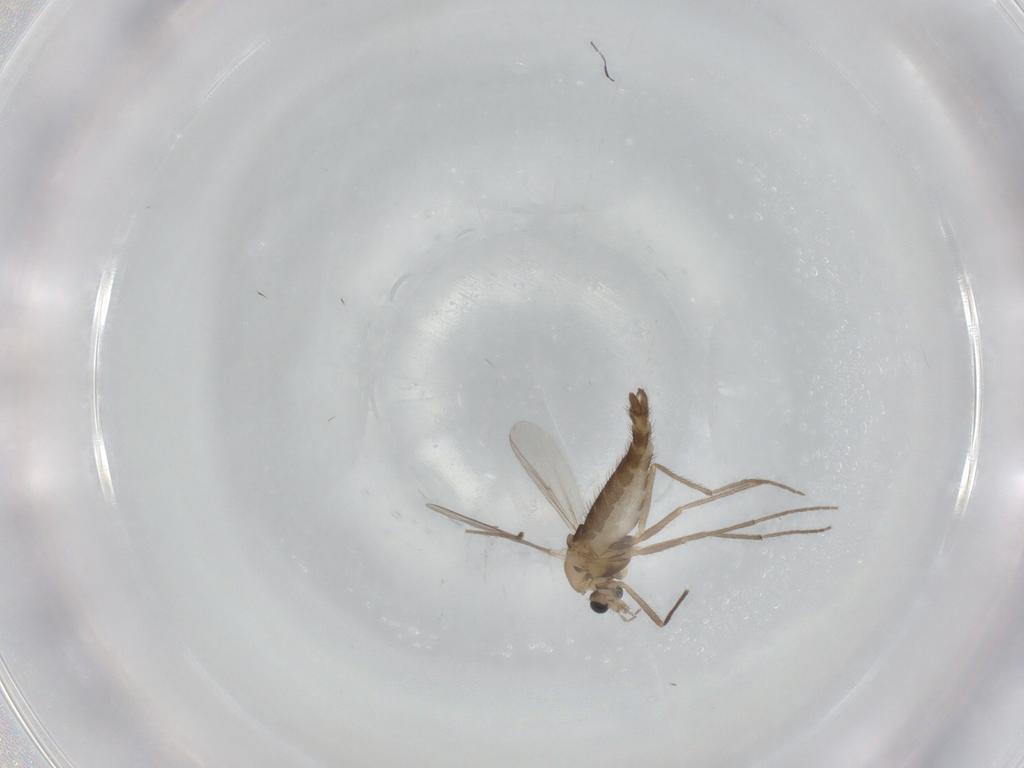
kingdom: Animalia
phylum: Arthropoda
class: Insecta
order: Diptera
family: Chironomidae
